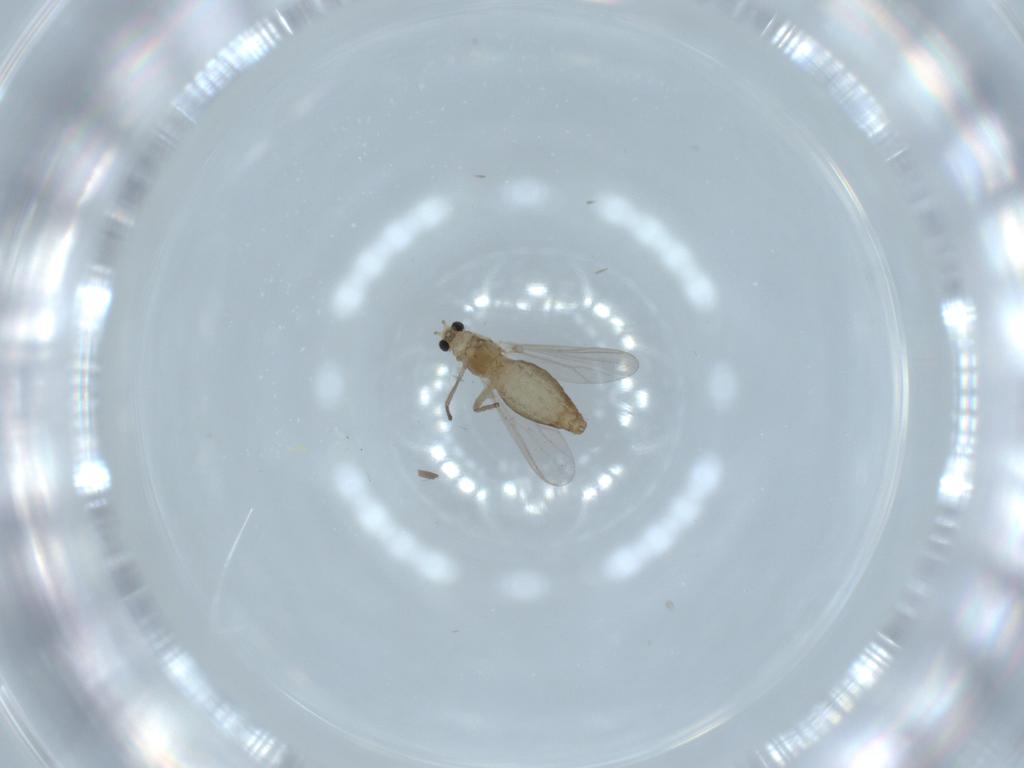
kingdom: Animalia
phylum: Arthropoda
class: Insecta
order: Diptera
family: Chironomidae
